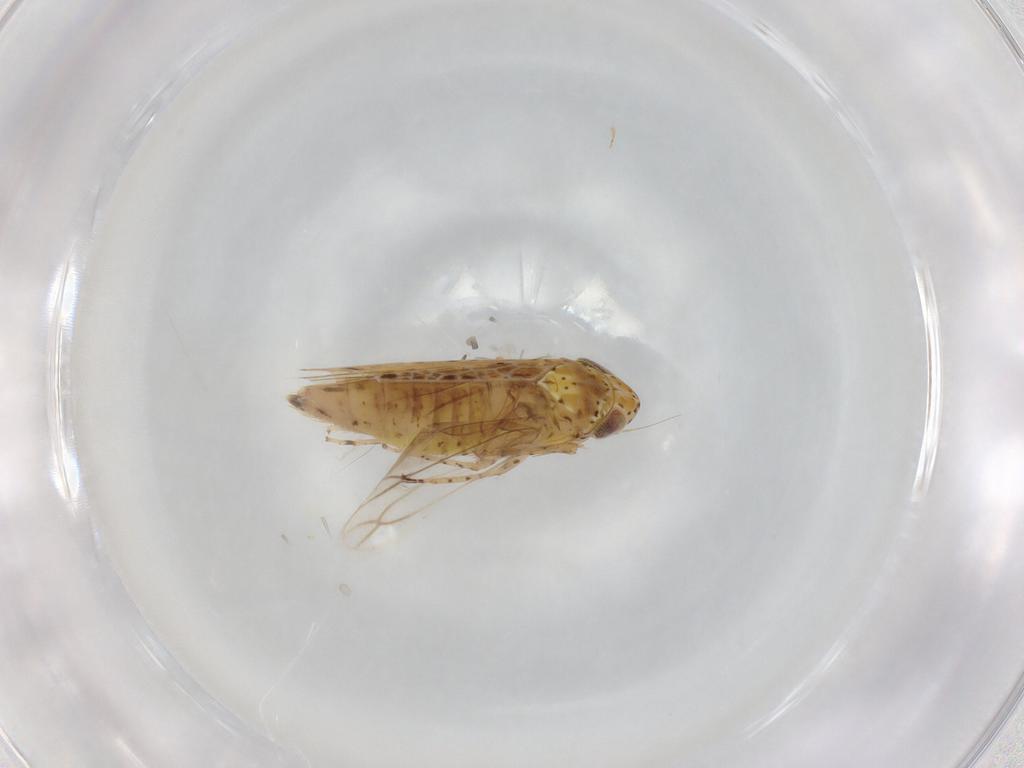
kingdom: Animalia
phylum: Arthropoda
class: Insecta
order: Hemiptera
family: Cicadellidae
